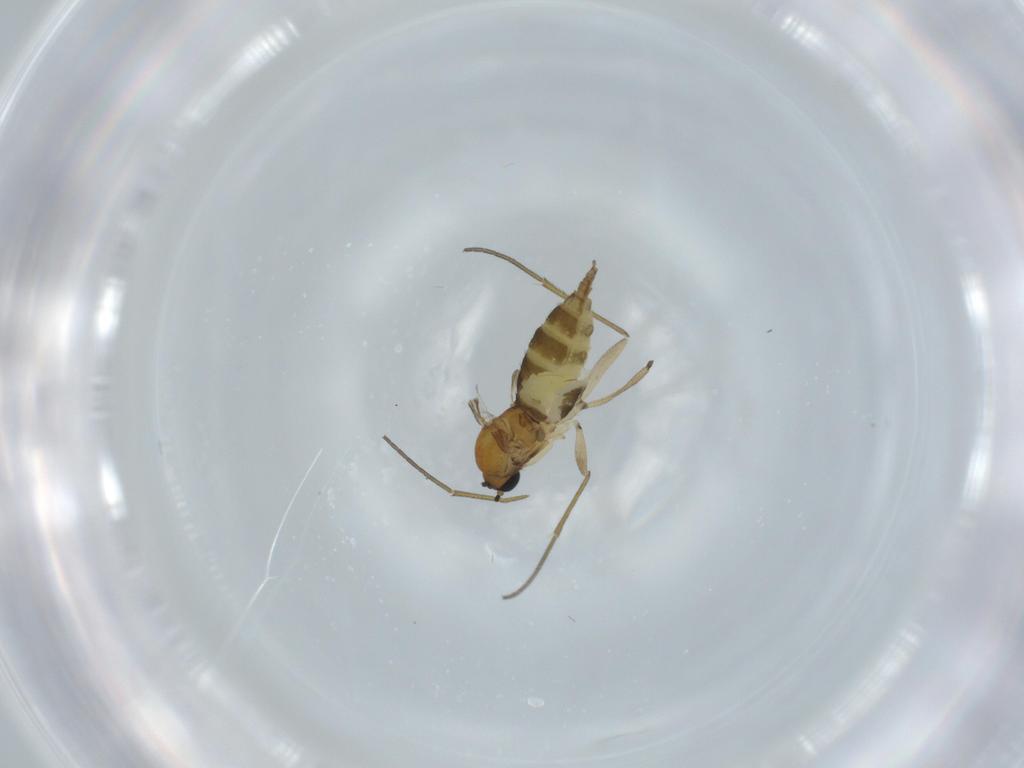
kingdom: Animalia
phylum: Arthropoda
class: Insecta
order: Diptera
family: Sciaridae
